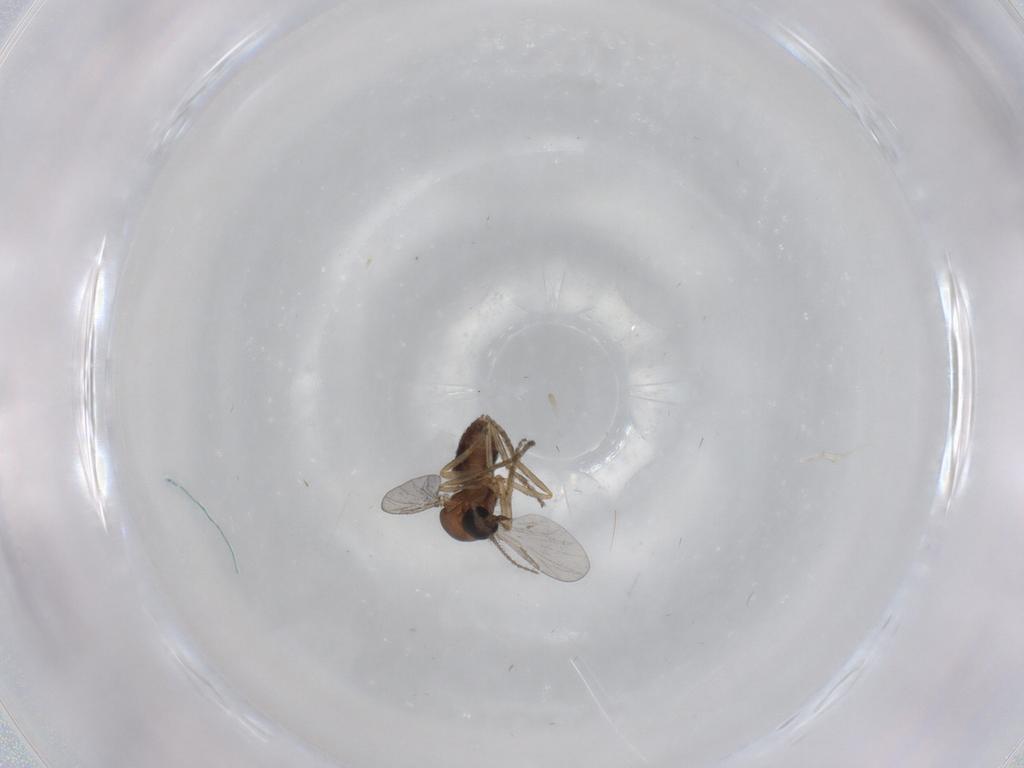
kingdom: Animalia
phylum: Arthropoda
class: Insecta
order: Diptera
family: Ceratopogonidae
